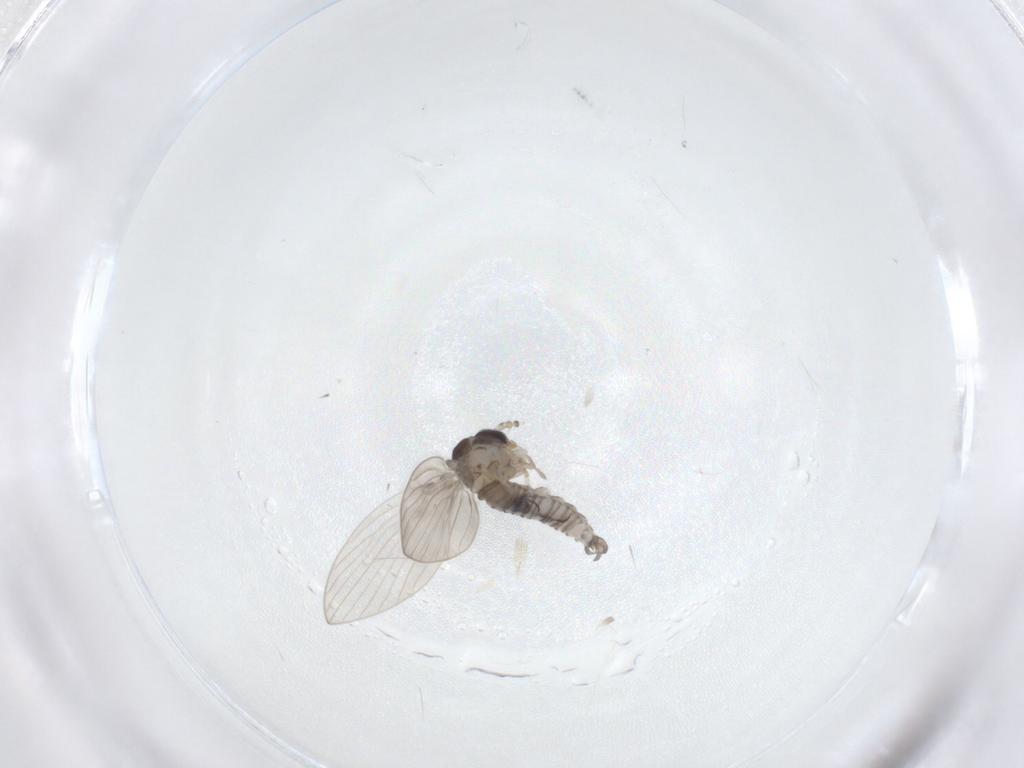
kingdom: Animalia
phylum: Arthropoda
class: Insecta
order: Diptera
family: Psychodidae
